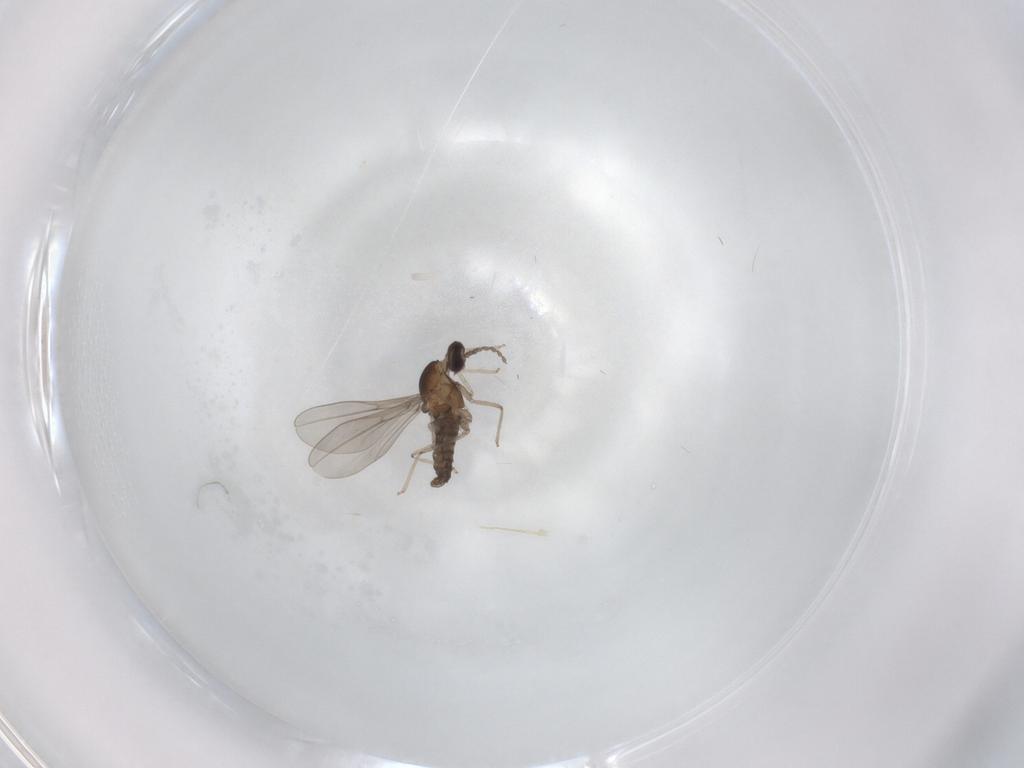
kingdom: Animalia
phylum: Arthropoda
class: Insecta
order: Diptera
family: Cecidomyiidae
